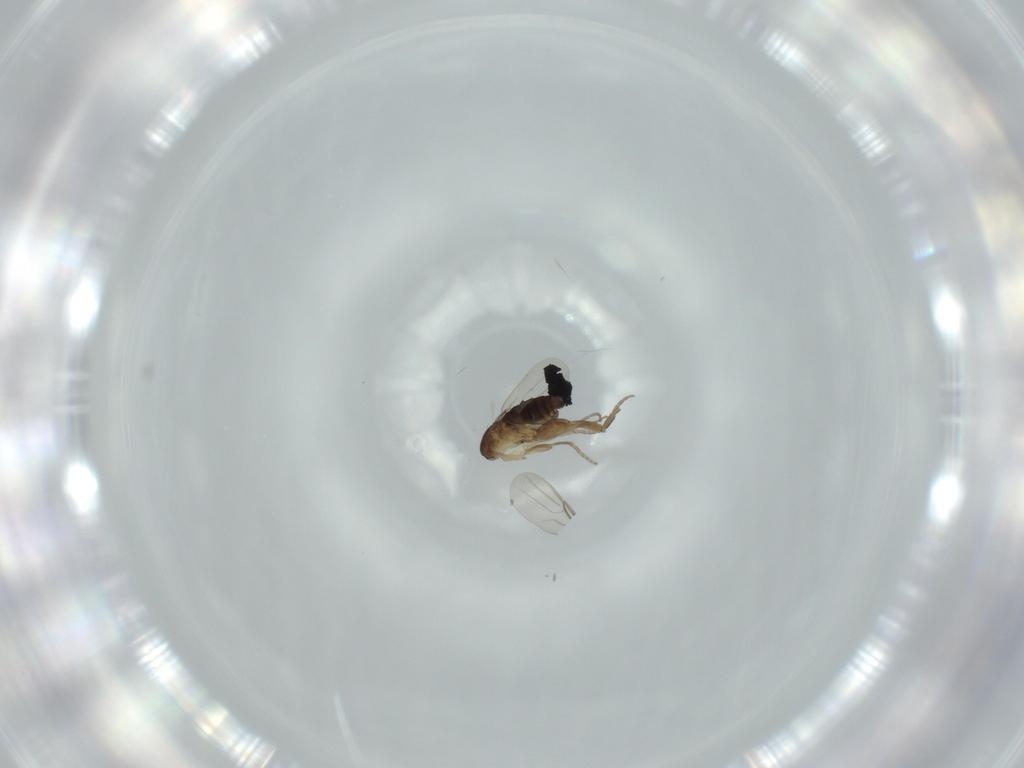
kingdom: Animalia
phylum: Arthropoda
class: Insecta
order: Diptera
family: Phoridae
